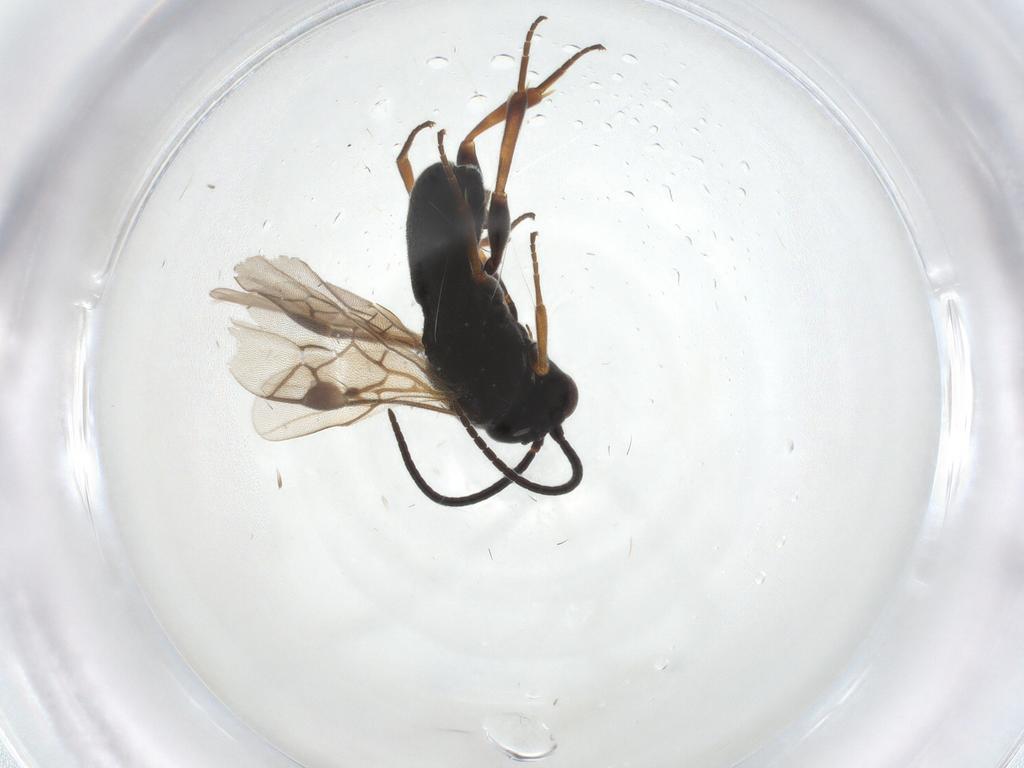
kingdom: Animalia
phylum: Arthropoda
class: Insecta
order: Hymenoptera
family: Braconidae
